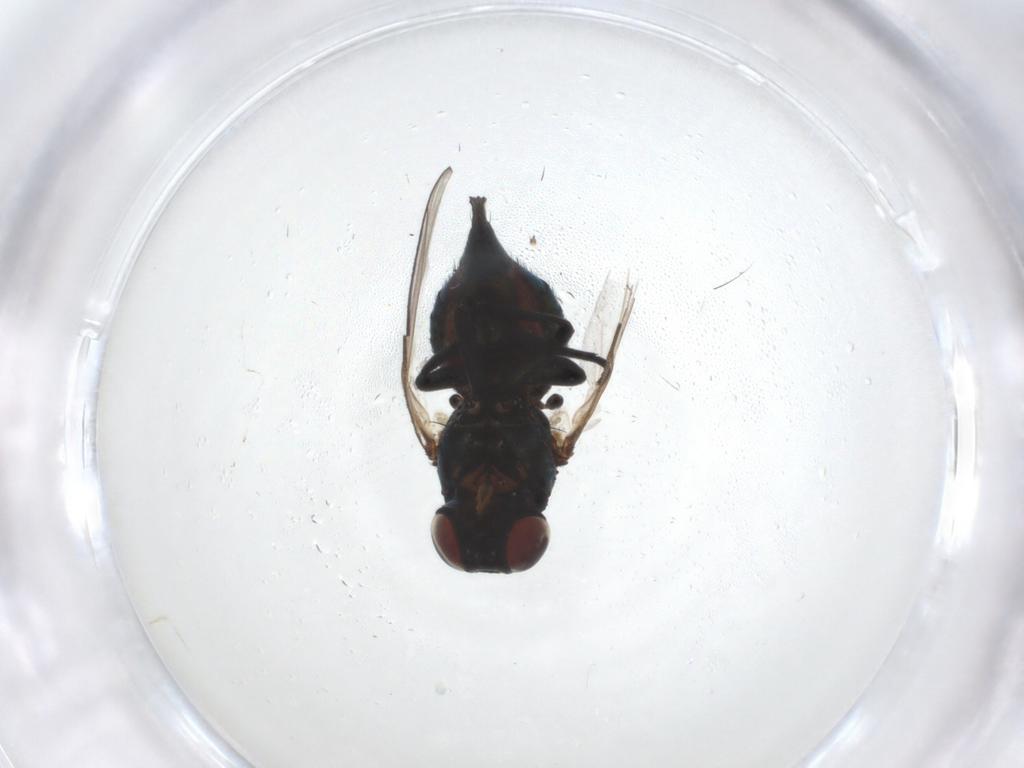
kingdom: Animalia
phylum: Arthropoda
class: Insecta
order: Diptera
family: Agromyzidae
